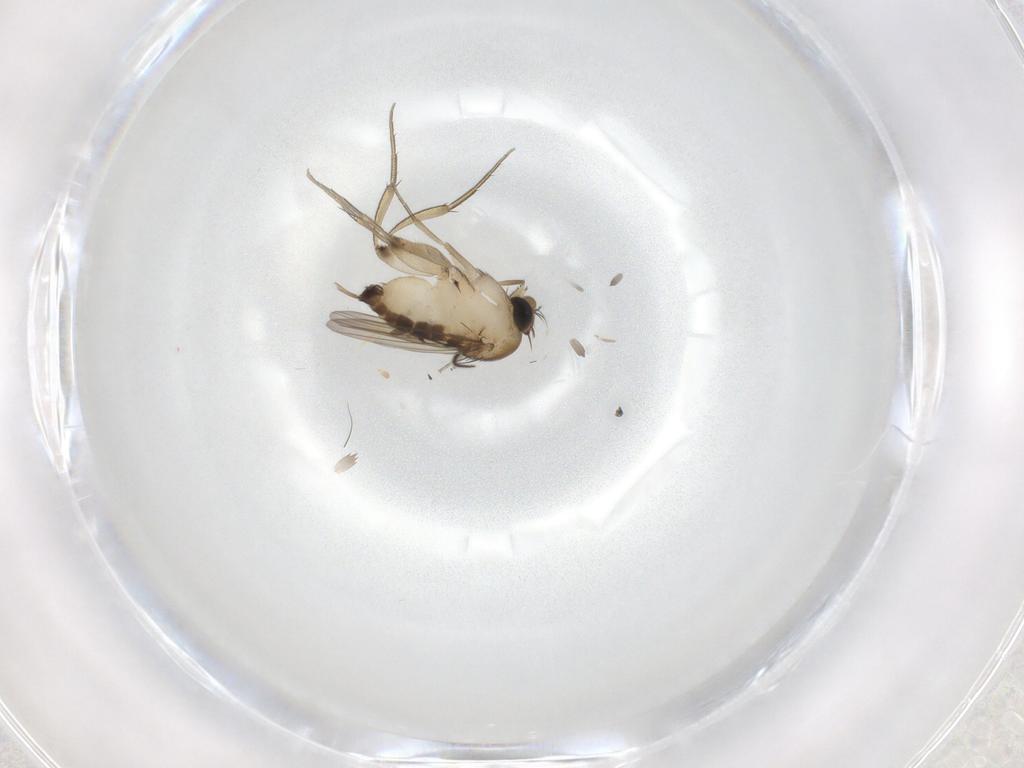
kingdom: Animalia
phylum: Arthropoda
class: Insecta
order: Diptera
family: Phoridae
